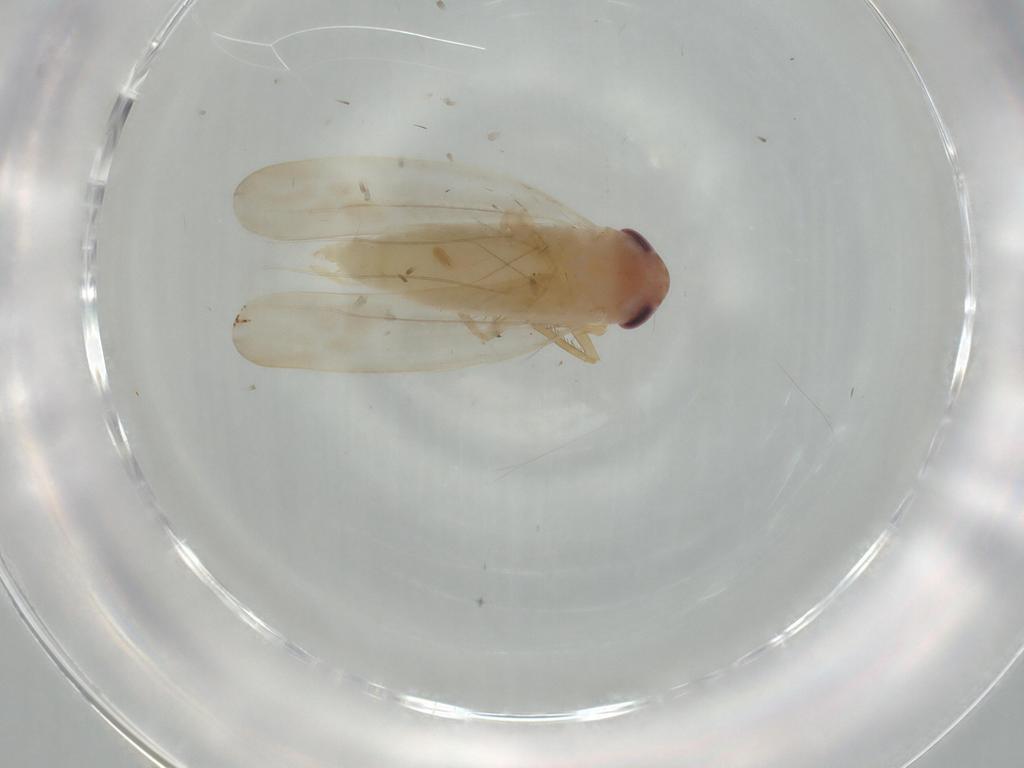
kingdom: Animalia
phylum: Arthropoda
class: Insecta
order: Hemiptera
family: Cicadellidae
